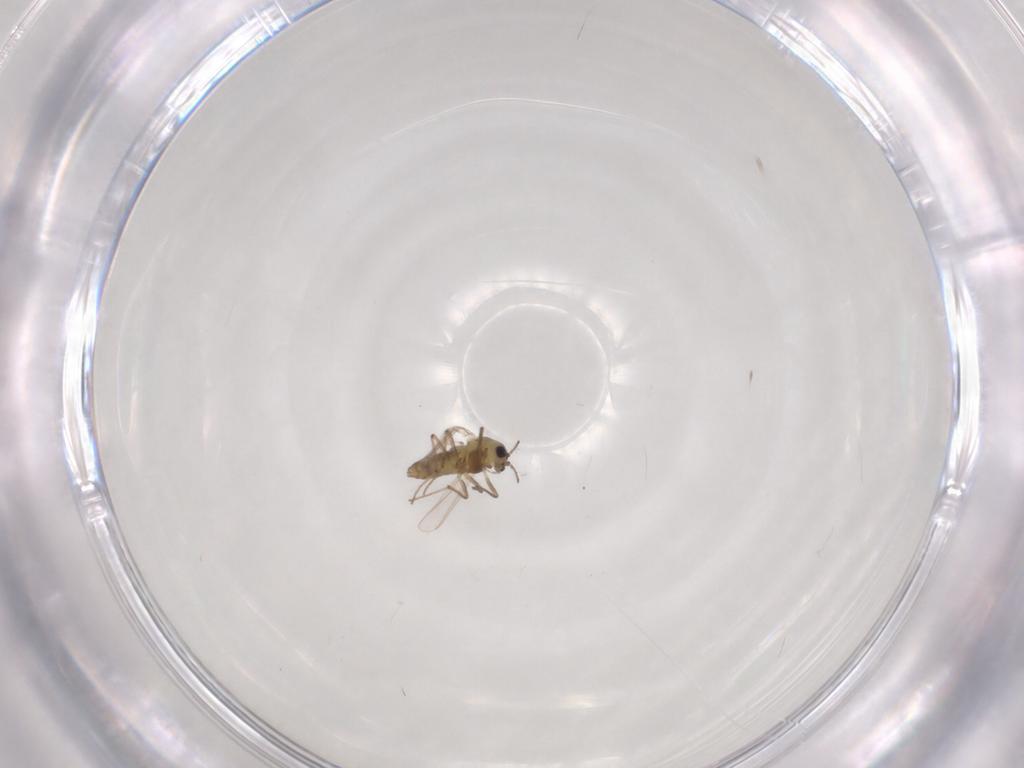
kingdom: Animalia
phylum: Arthropoda
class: Insecta
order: Diptera
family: Chironomidae
